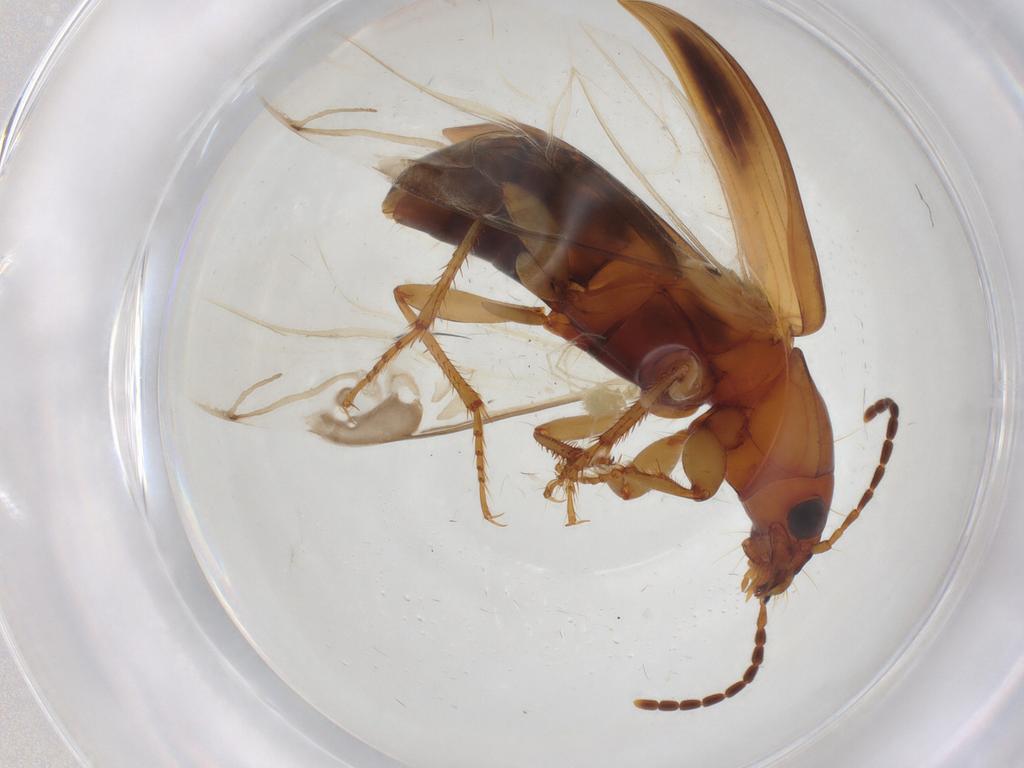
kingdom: Animalia
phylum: Arthropoda
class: Insecta
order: Coleoptera
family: Carabidae
